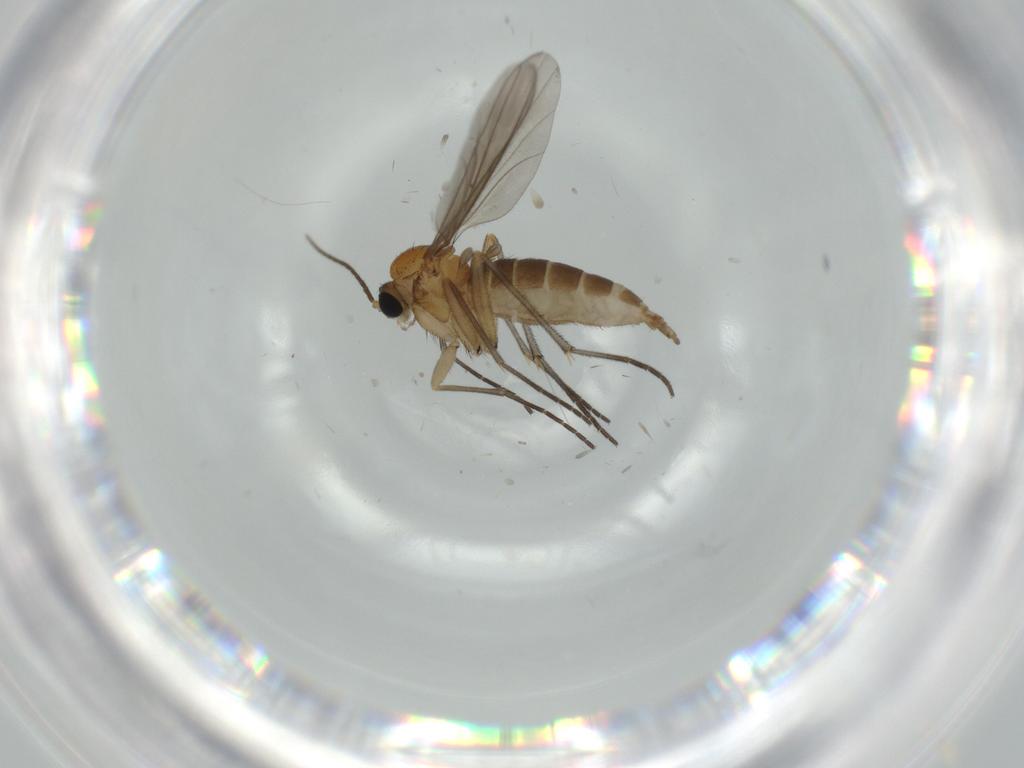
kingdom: Animalia
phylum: Arthropoda
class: Insecta
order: Diptera
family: Sciaridae
